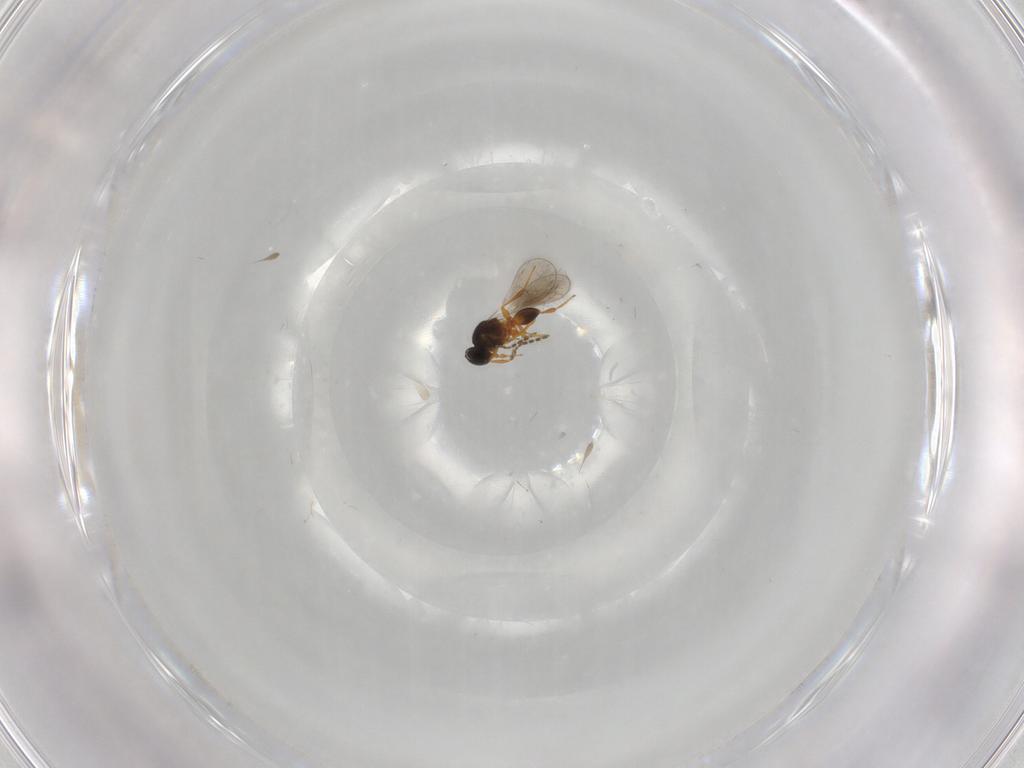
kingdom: Animalia
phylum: Arthropoda
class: Insecta
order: Hymenoptera
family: Platygastridae
